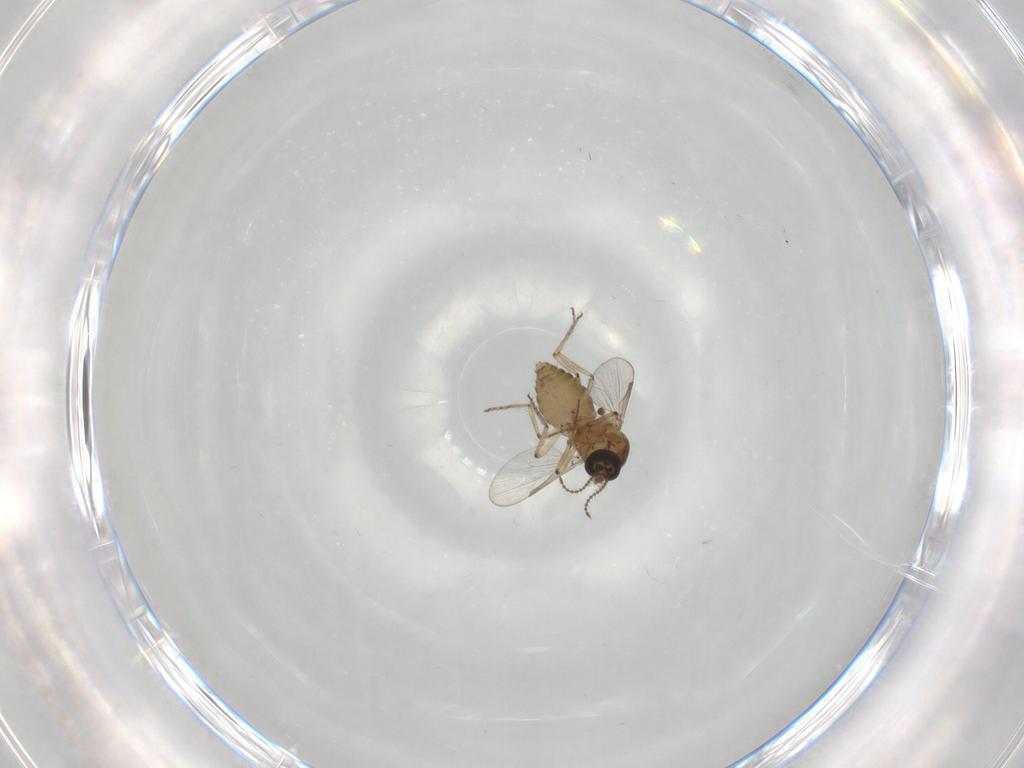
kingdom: Animalia
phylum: Arthropoda
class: Insecta
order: Diptera
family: Ceratopogonidae
